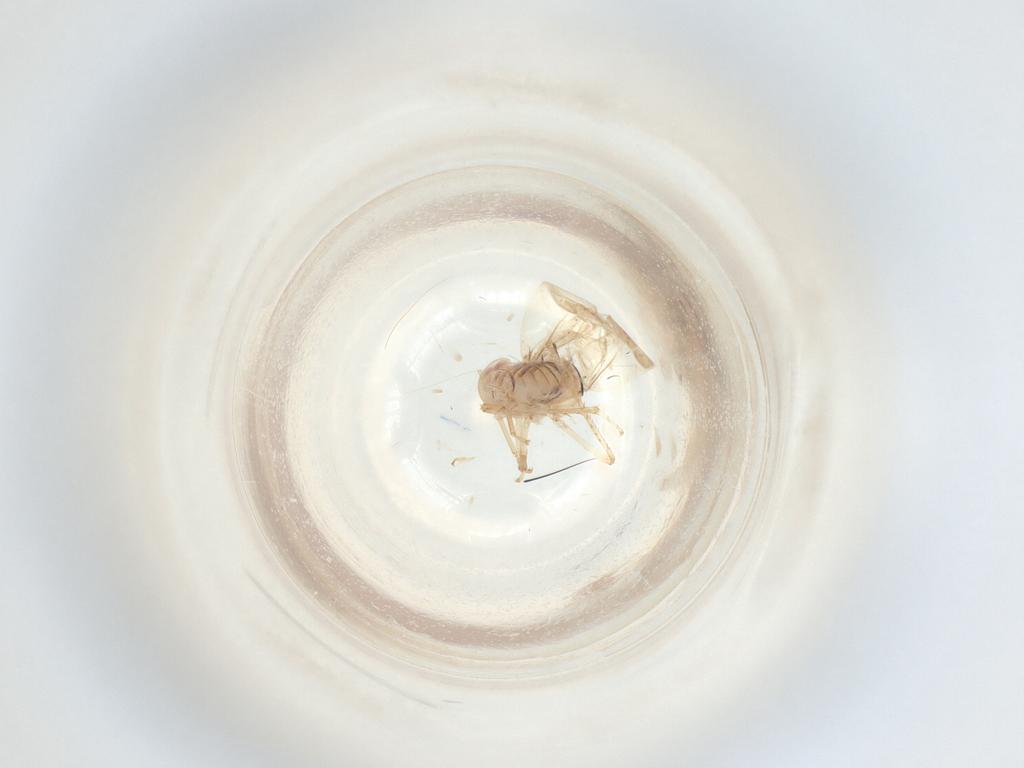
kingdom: Animalia
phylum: Arthropoda
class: Insecta
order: Hemiptera
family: Cicadellidae
